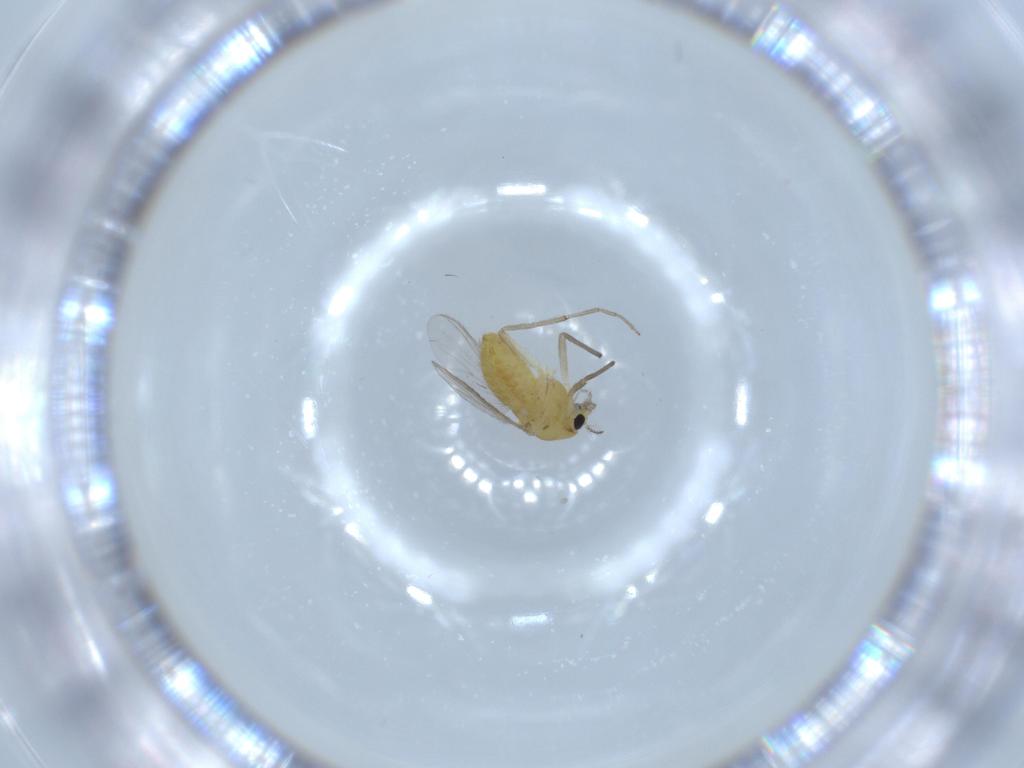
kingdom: Animalia
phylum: Arthropoda
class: Insecta
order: Diptera
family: Chironomidae
